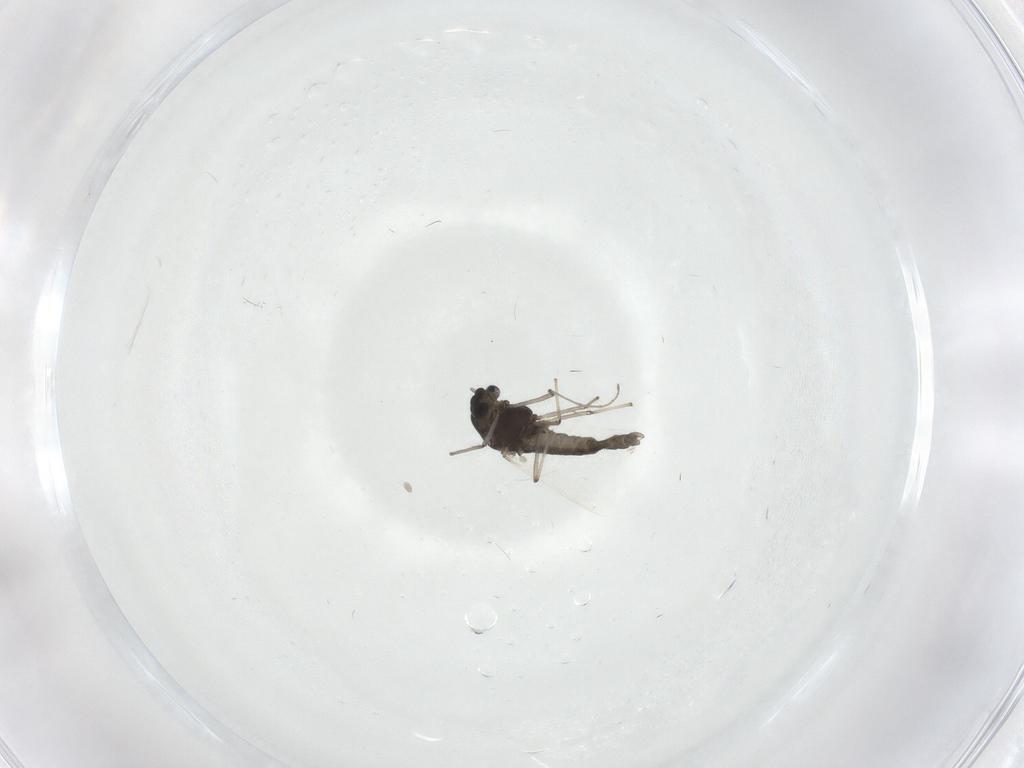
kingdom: Animalia
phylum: Arthropoda
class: Insecta
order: Diptera
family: Chironomidae
